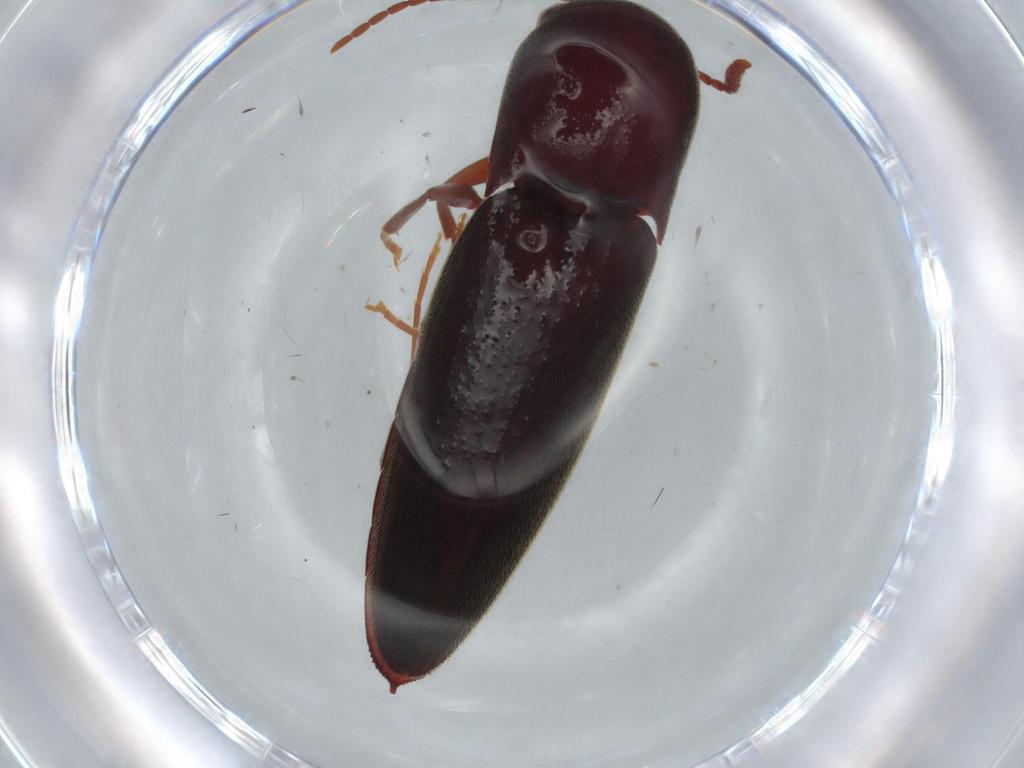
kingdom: Animalia
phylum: Arthropoda
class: Insecta
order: Coleoptera
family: Eucnemidae
